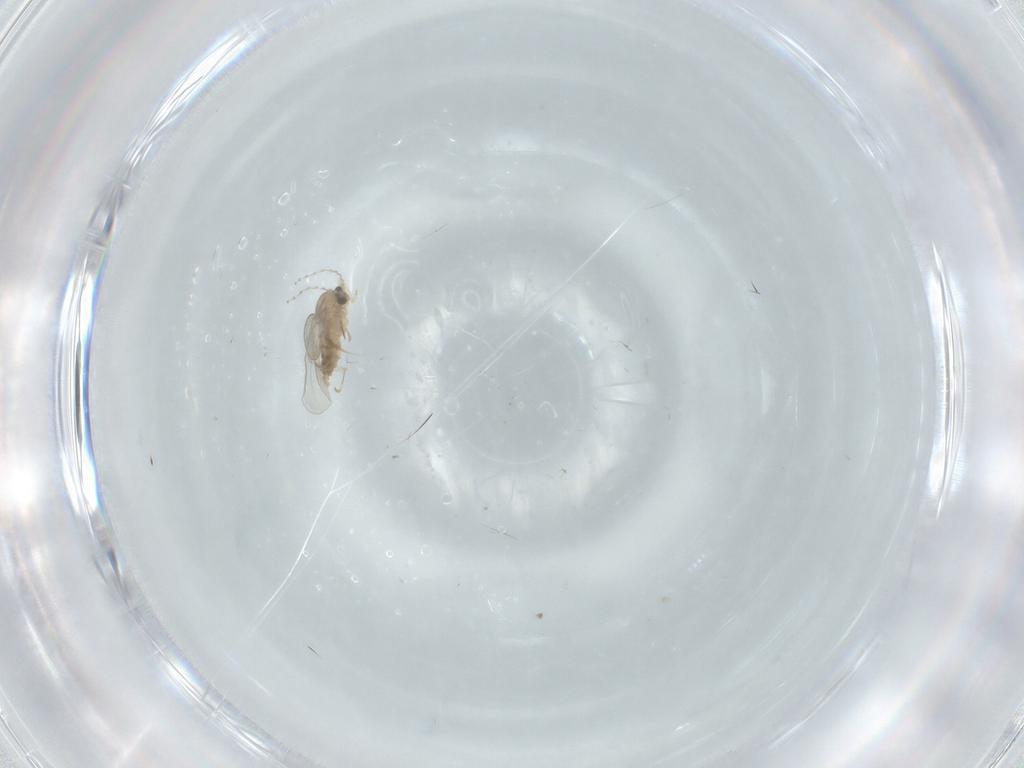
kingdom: Animalia
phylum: Arthropoda
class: Insecta
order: Diptera
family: Cecidomyiidae
